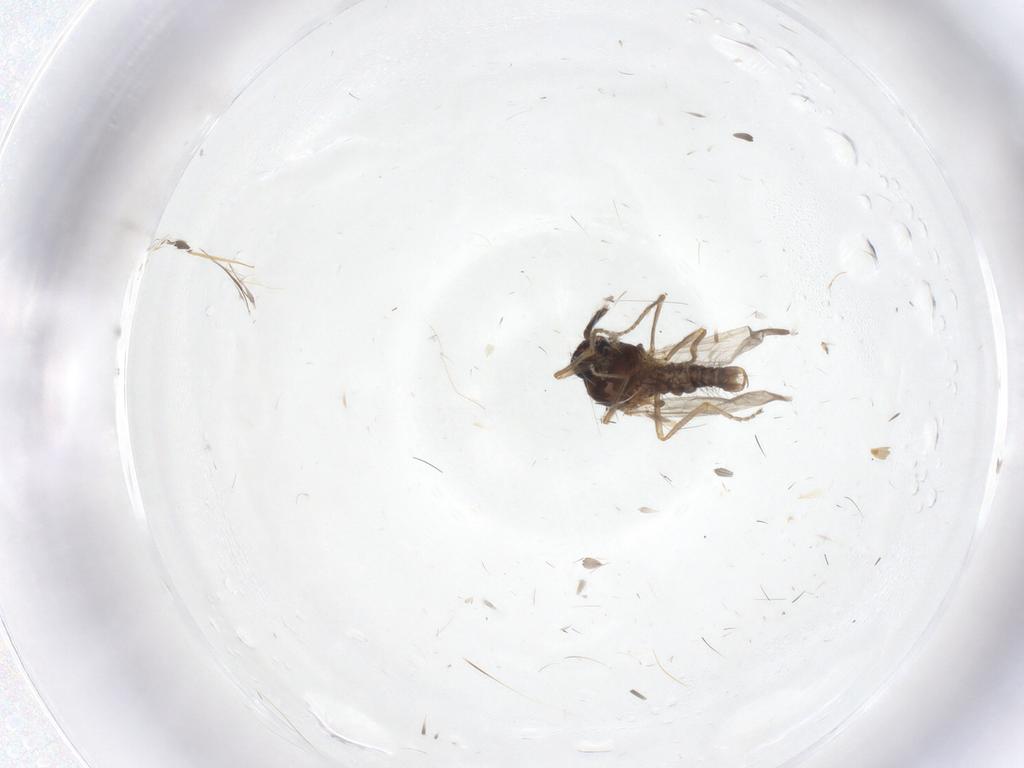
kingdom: Animalia
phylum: Arthropoda
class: Insecta
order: Diptera
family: Ceratopogonidae
